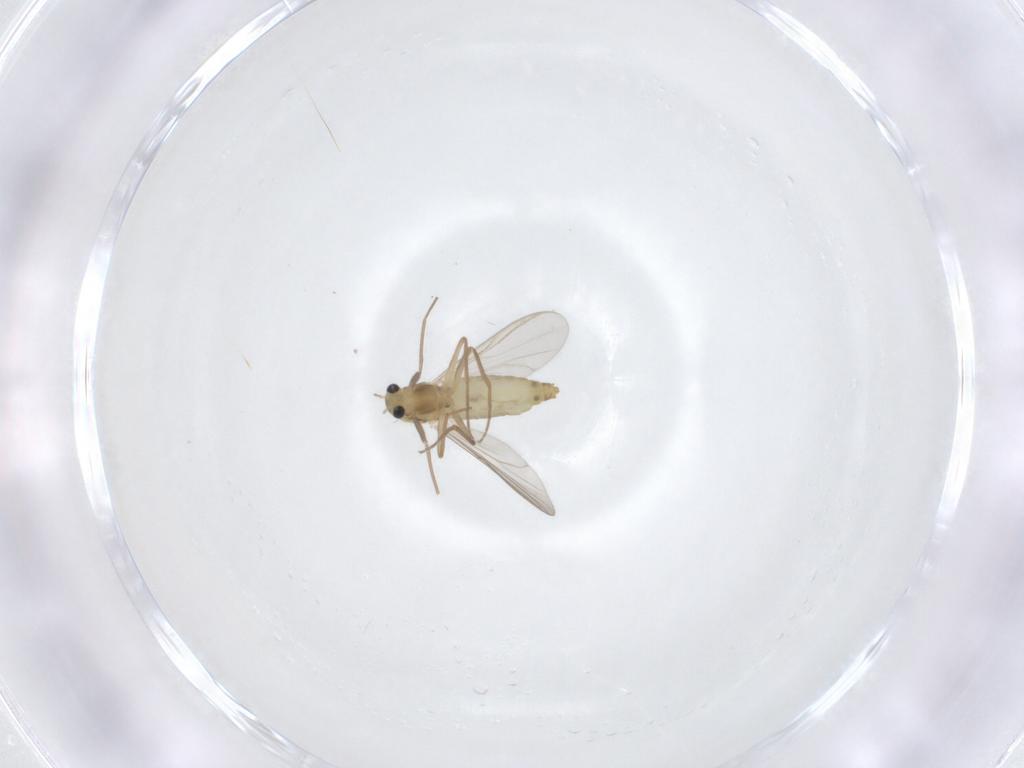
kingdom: Animalia
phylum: Arthropoda
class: Insecta
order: Diptera
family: Chironomidae
